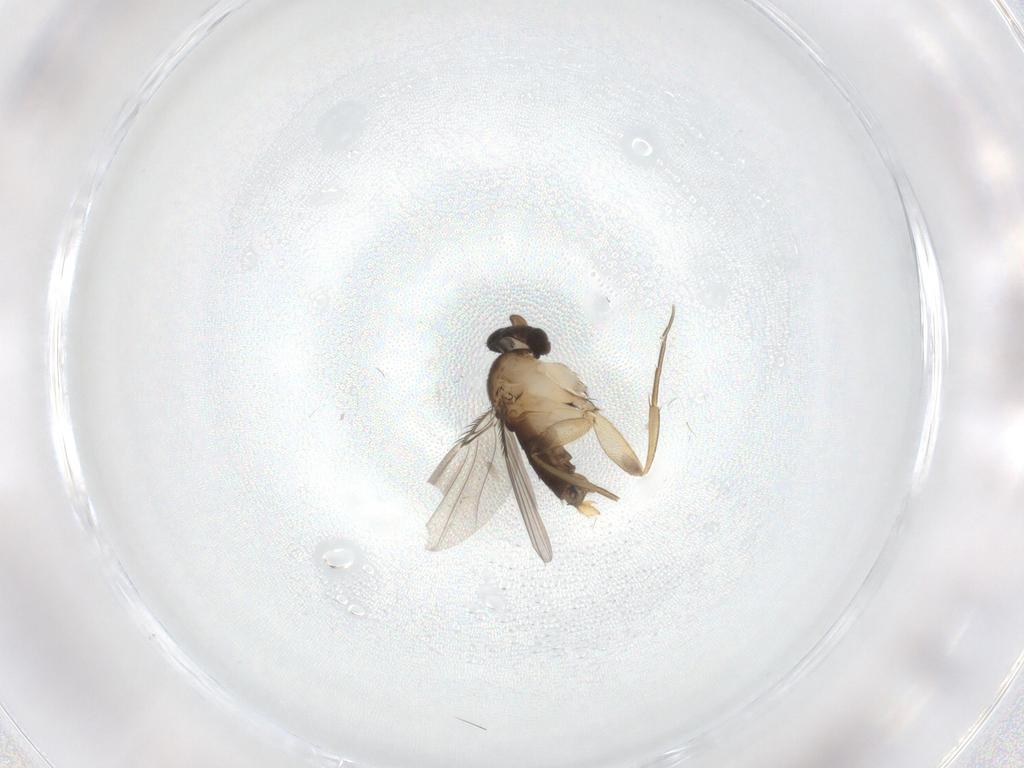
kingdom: Animalia
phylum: Arthropoda
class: Insecta
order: Diptera
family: Phoridae
